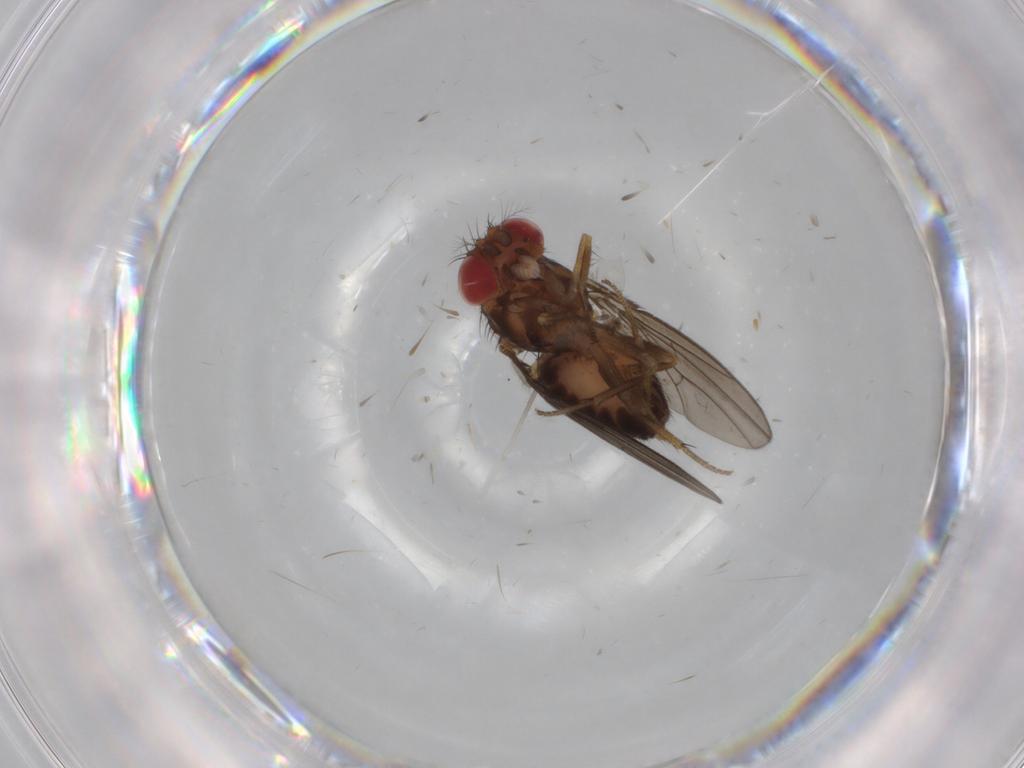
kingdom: Animalia
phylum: Arthropoda
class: Insecta
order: Diptera
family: Drosophilidae
